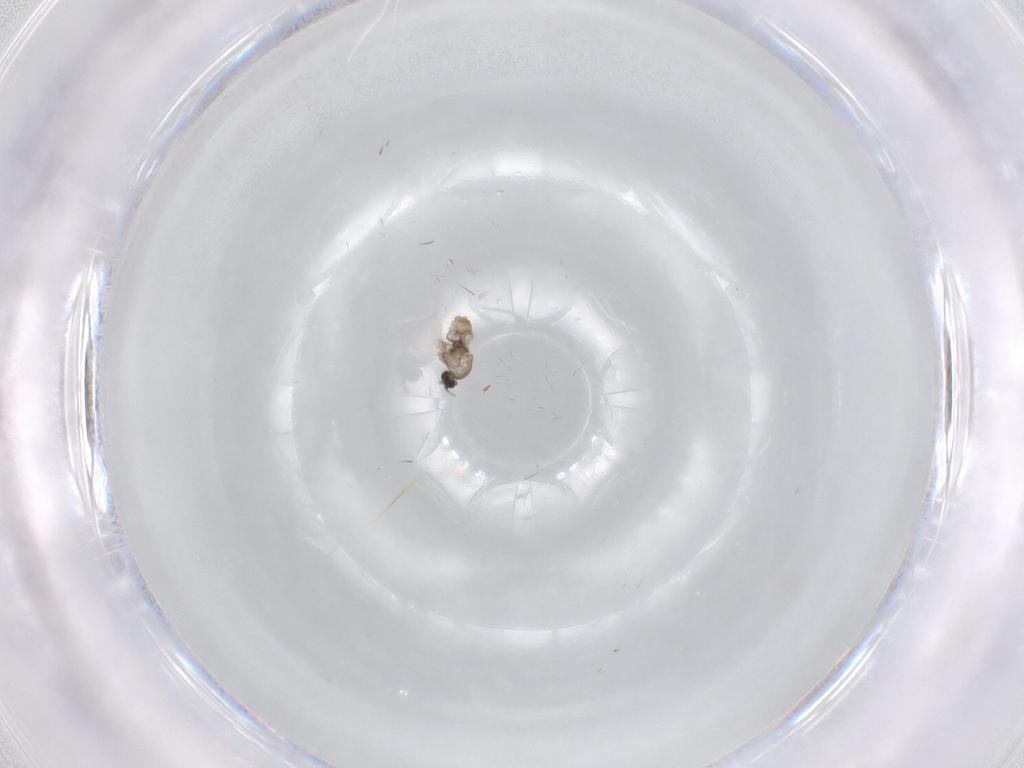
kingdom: Animalia
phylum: Arthropoda
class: Insecta
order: Diptera
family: Cecidomyiidae
